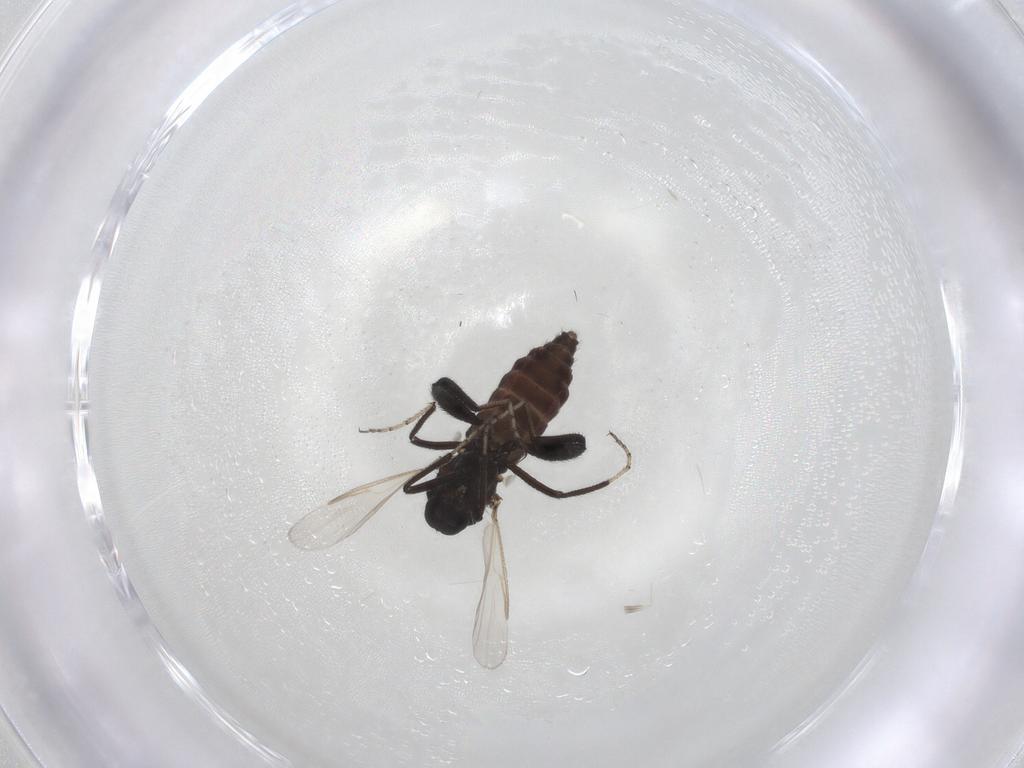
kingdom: Animalia
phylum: Arthropoda
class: Insecta
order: Diptera
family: Ceratopogonidae
